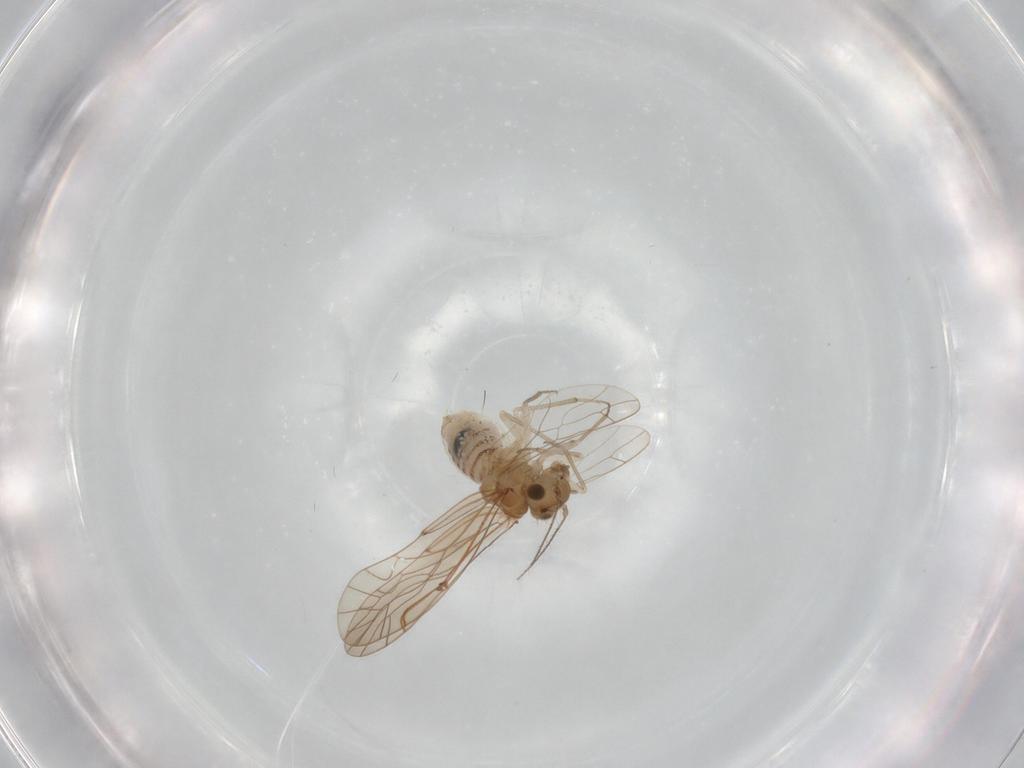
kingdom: Animalia
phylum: Arthropoda
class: Insecta
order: Psocodea
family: Lachesillidae
